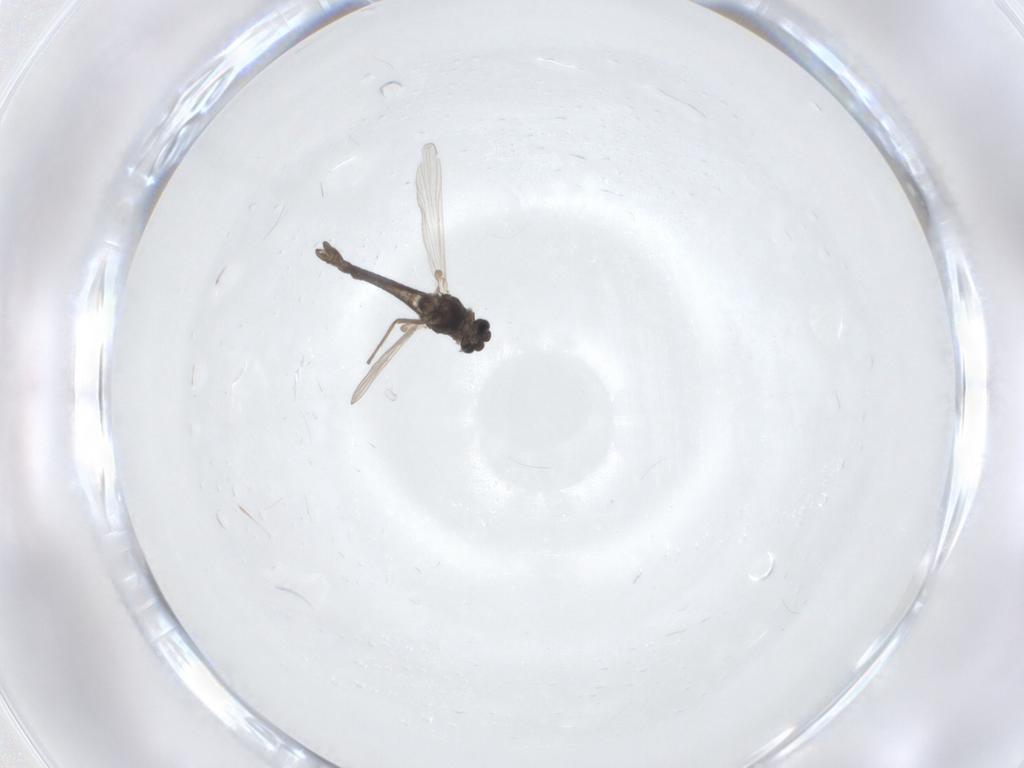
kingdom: Animalia
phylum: Arthropoda
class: Insecta
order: Diptera
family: Chironomidae
